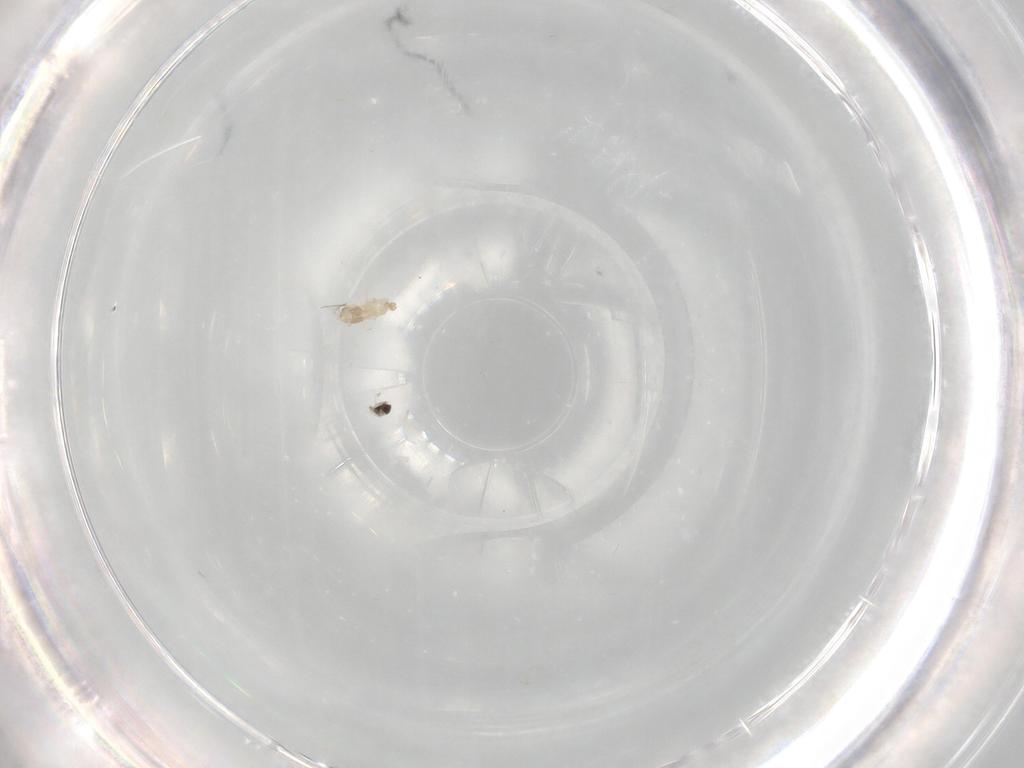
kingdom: Animalia
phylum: Arthropoda
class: Insecta
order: Diptera
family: Cecidomyiidae
